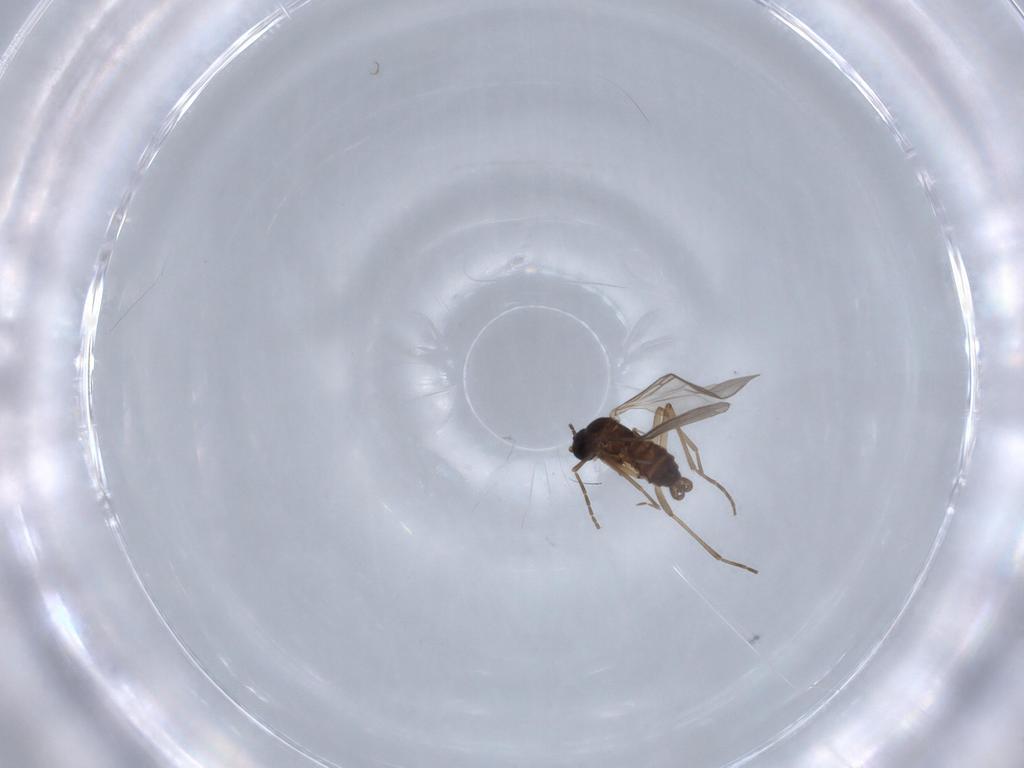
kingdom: Animalia
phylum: Arthropoda
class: Insecta
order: Diptera
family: Sciaridae
